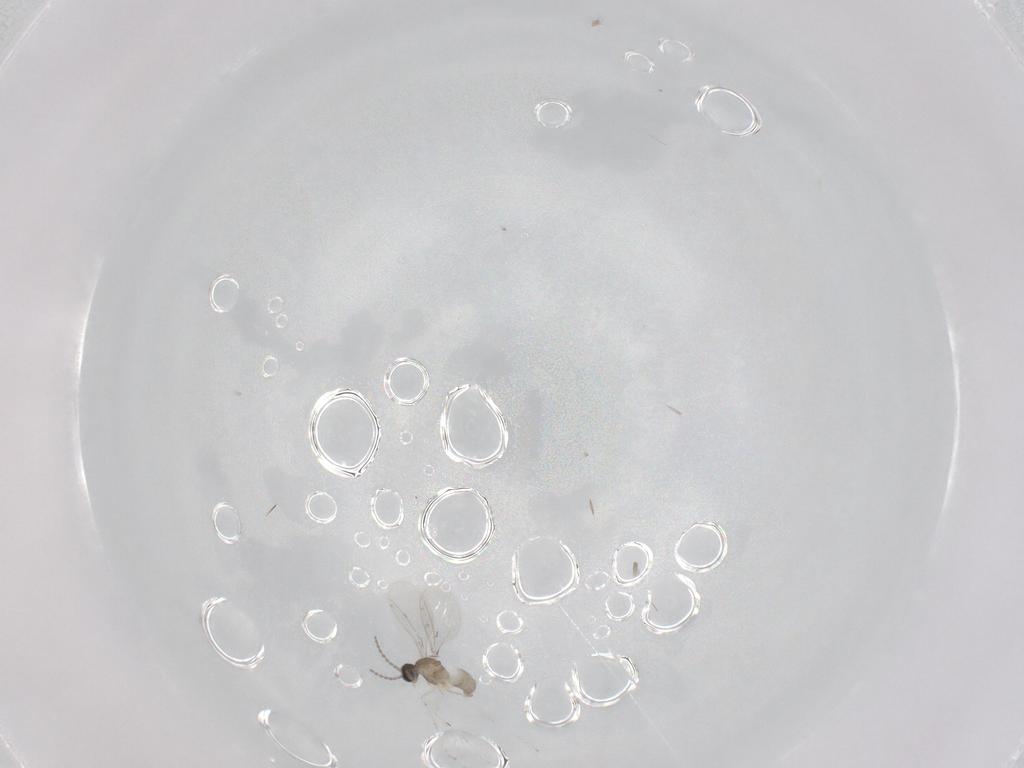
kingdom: Animalia
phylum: Arthropoda
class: Insecta
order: Diptera
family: Cecidomyiidae
